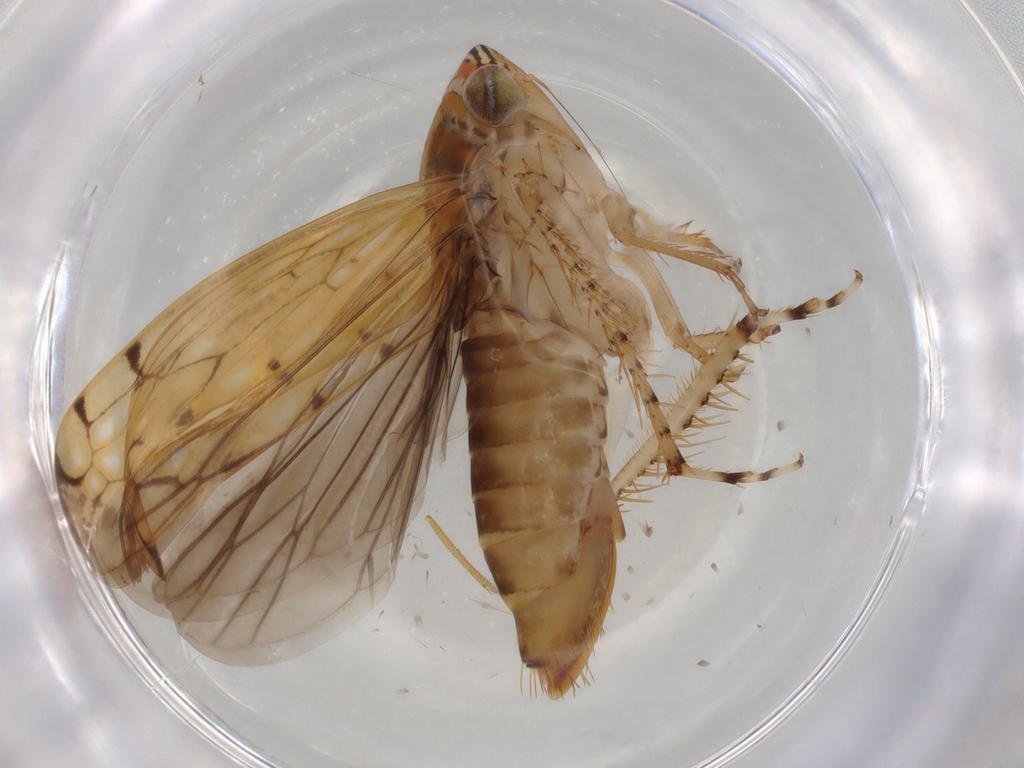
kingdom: Animalia
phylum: Arthropoda
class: Insecta
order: Hemiptera
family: Cicadellidae
